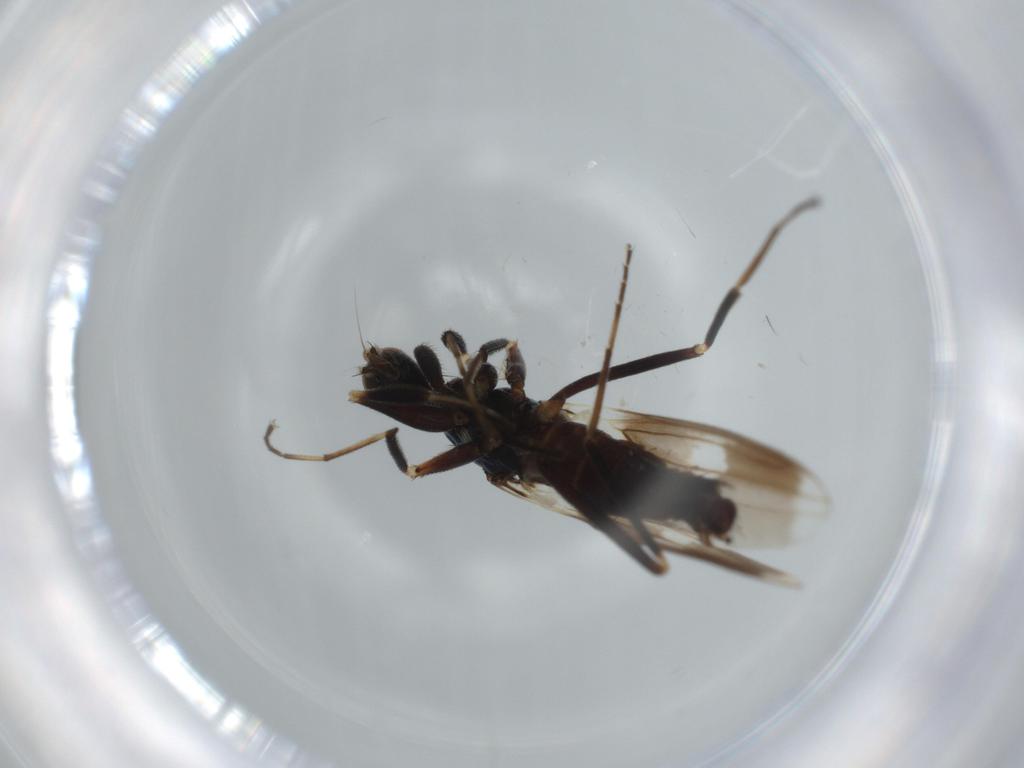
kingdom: Animalia
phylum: Arthropoda
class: Insecta
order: Diptera
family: Hybotidae
